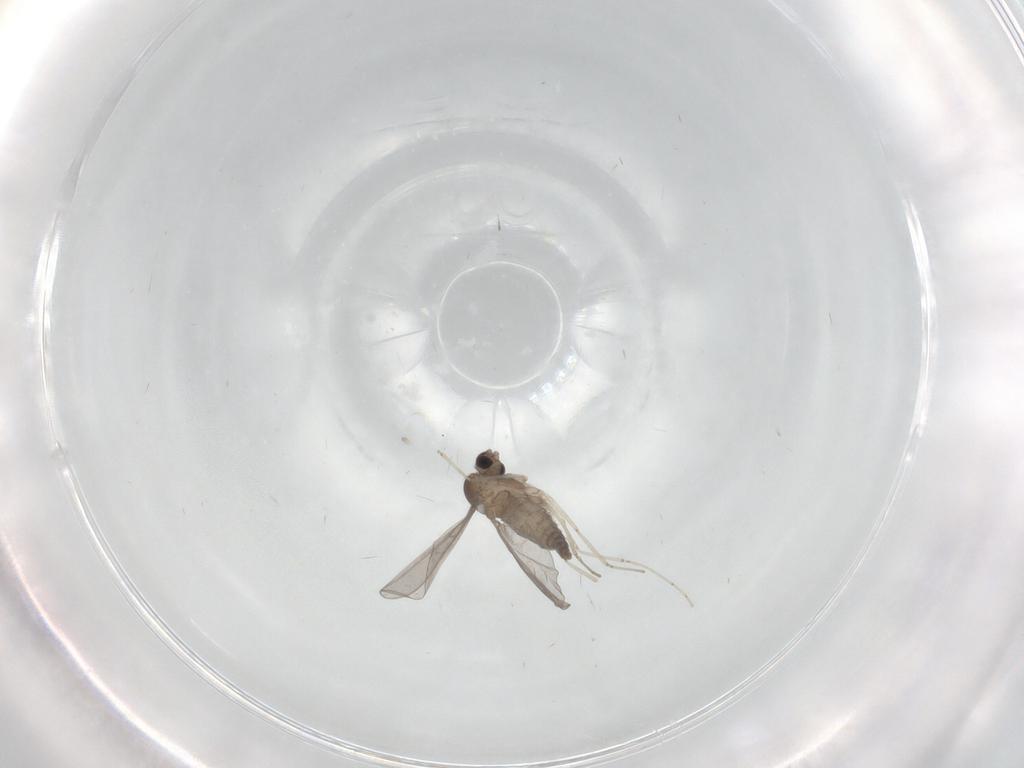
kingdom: Animalia
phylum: Arthropoda
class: Insecta
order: Diptera
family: Cecidomyiidae
